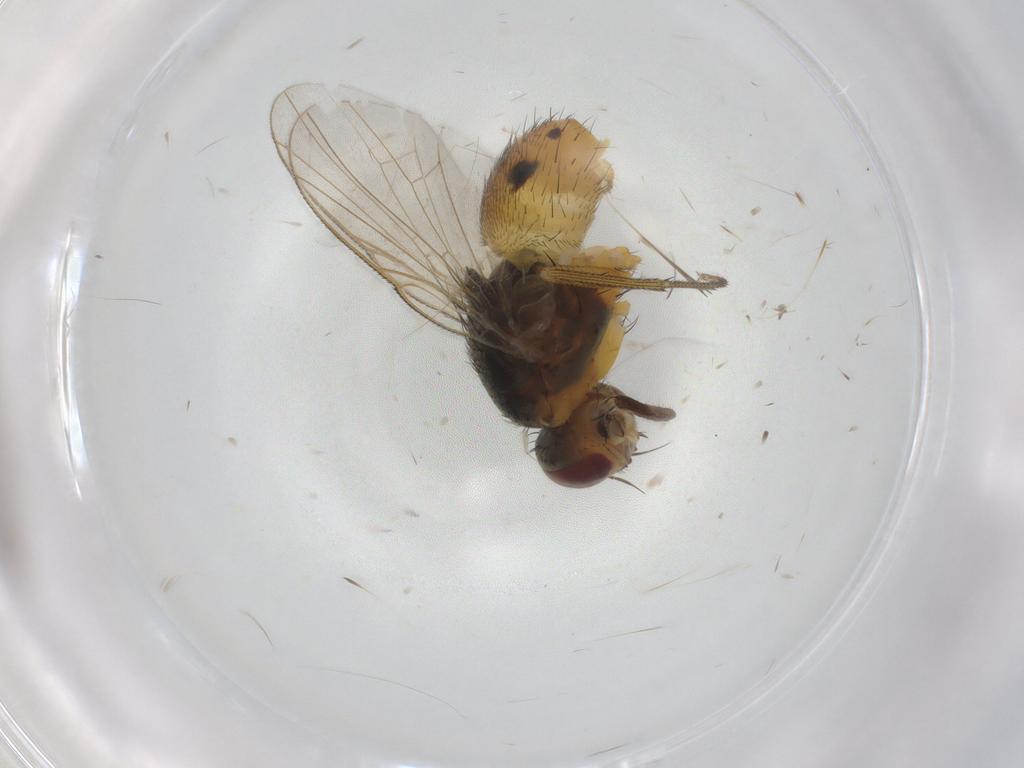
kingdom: Animalia
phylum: Arthropoda
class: Insecta
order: Diptera
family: Muscidae
